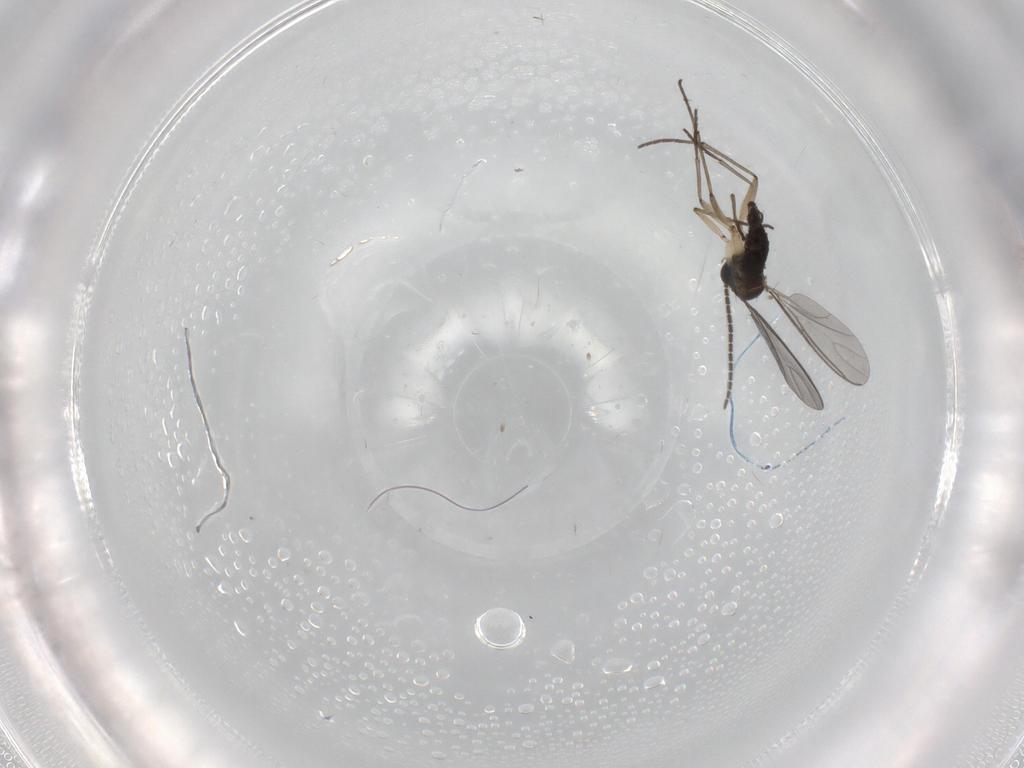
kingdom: Animalia
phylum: Arthropoda
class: Insecta
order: Diptera
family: Sciaridae
